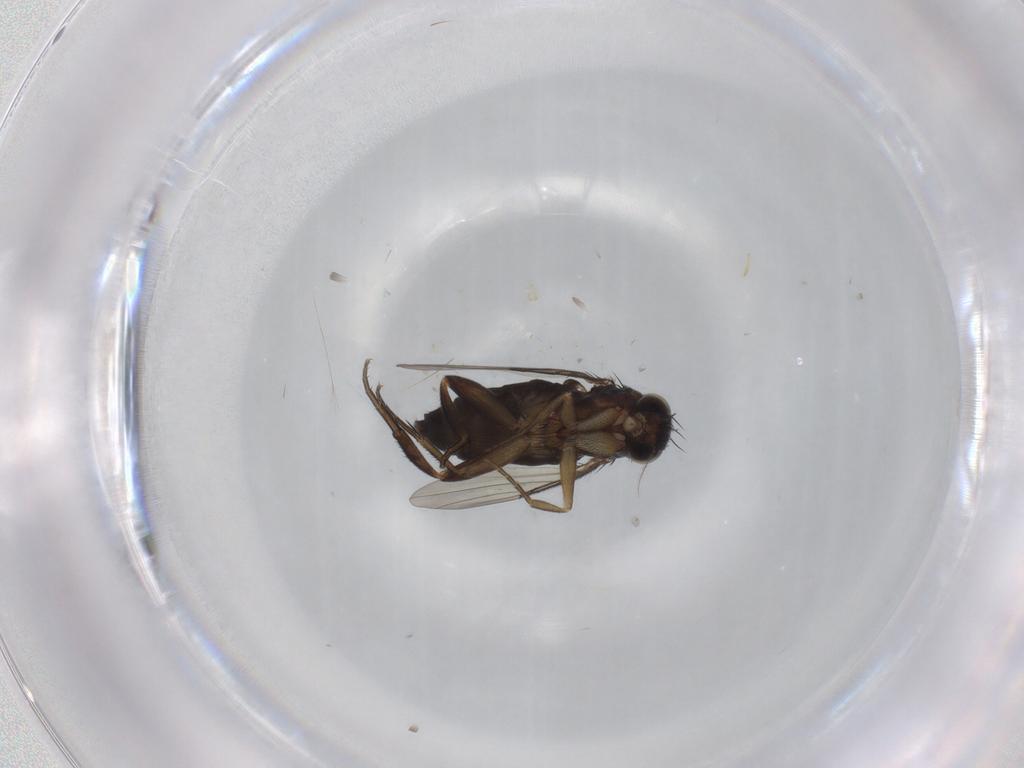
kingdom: Animalia
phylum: Arthropoda
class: Insecta
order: Diptera
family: Phoridae
